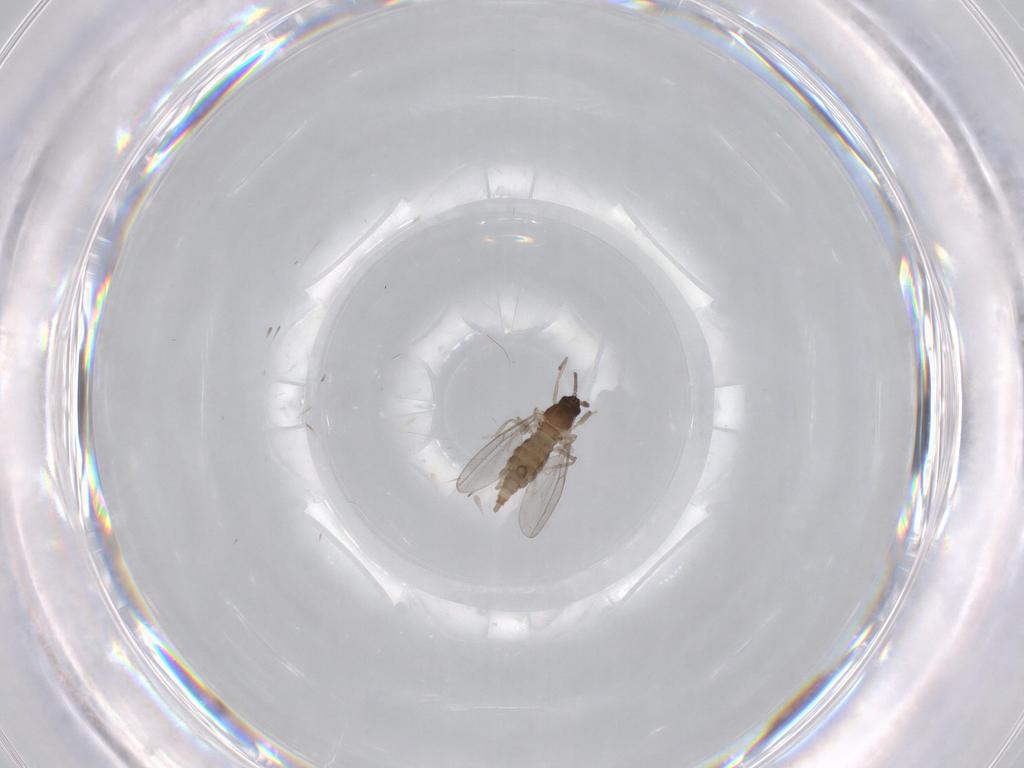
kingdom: Animalia
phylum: Arthropoda
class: Insecta
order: Diptera
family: Cecidomyiidae
